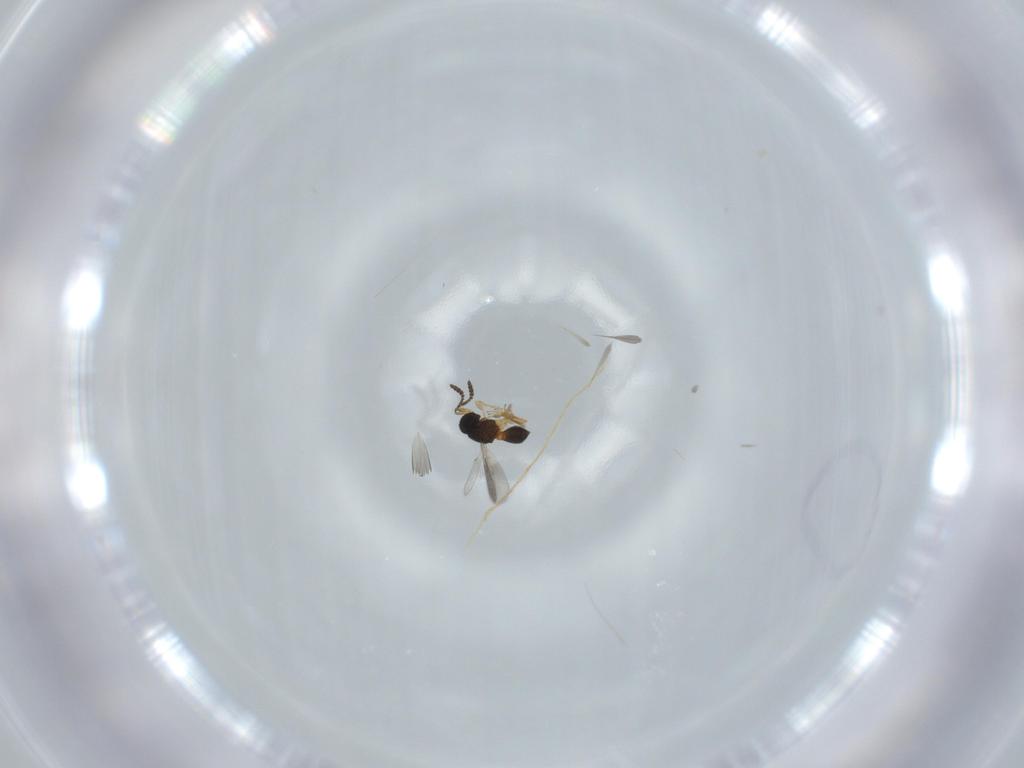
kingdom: Animalia
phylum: Arthropoda
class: Insecta
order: Hymenoptera
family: Scelionidae
